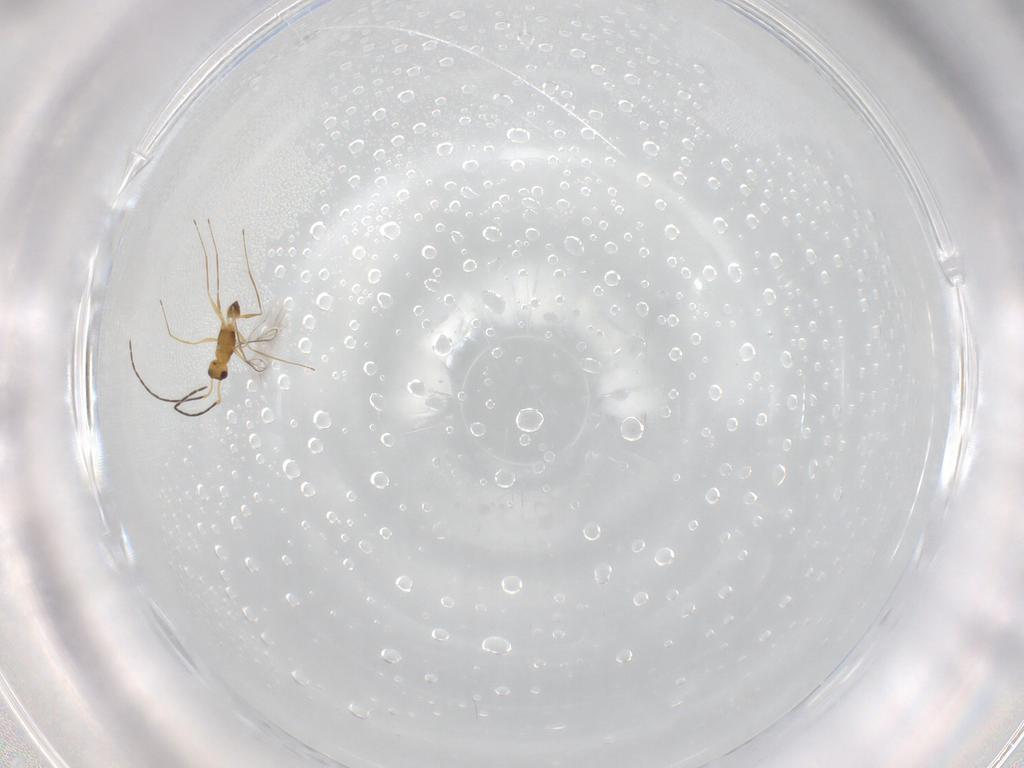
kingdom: Animalia
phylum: Arthropoda
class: Insecta
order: Hymenoptera
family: Mymaridae
